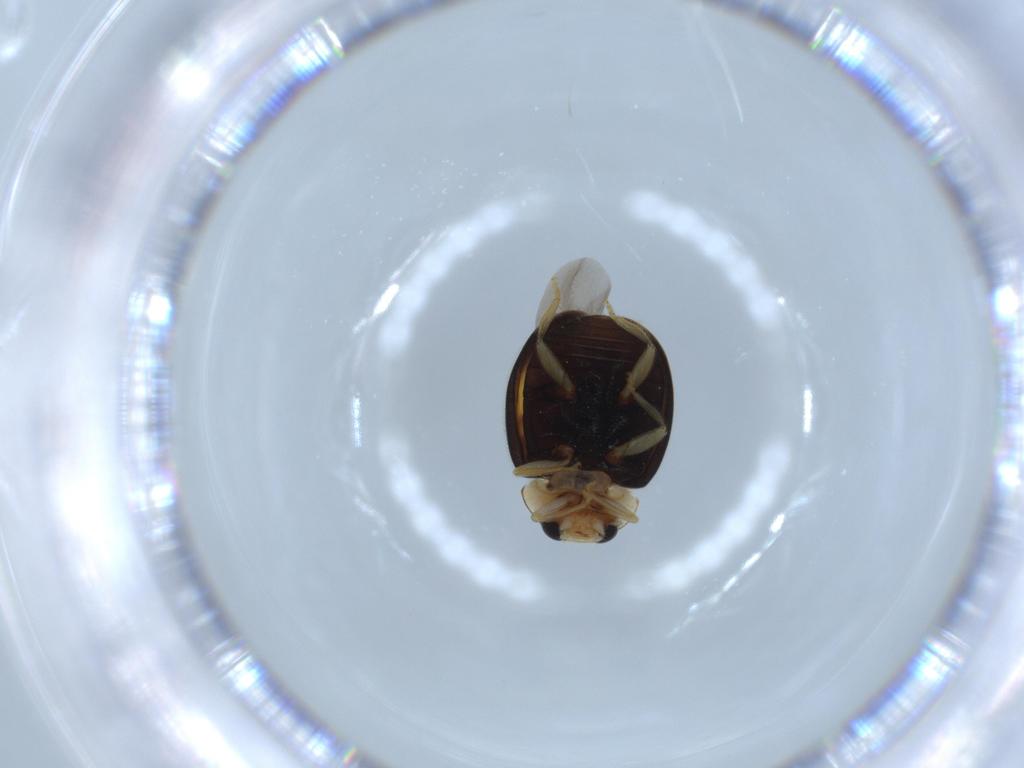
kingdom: Animalia
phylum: Arthropoda
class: Insecta
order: Coleoptera
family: Coccinellidae
